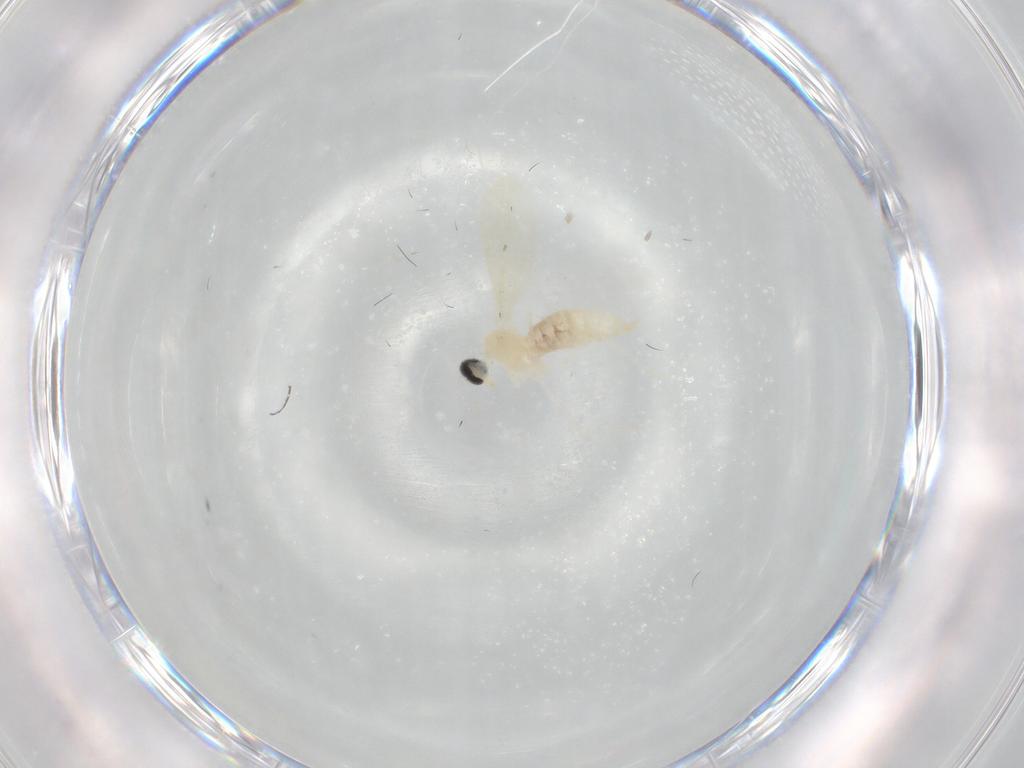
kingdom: Animalia
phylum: Arthropoda
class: Insecta
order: Diptera
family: Cecidomyiidae
